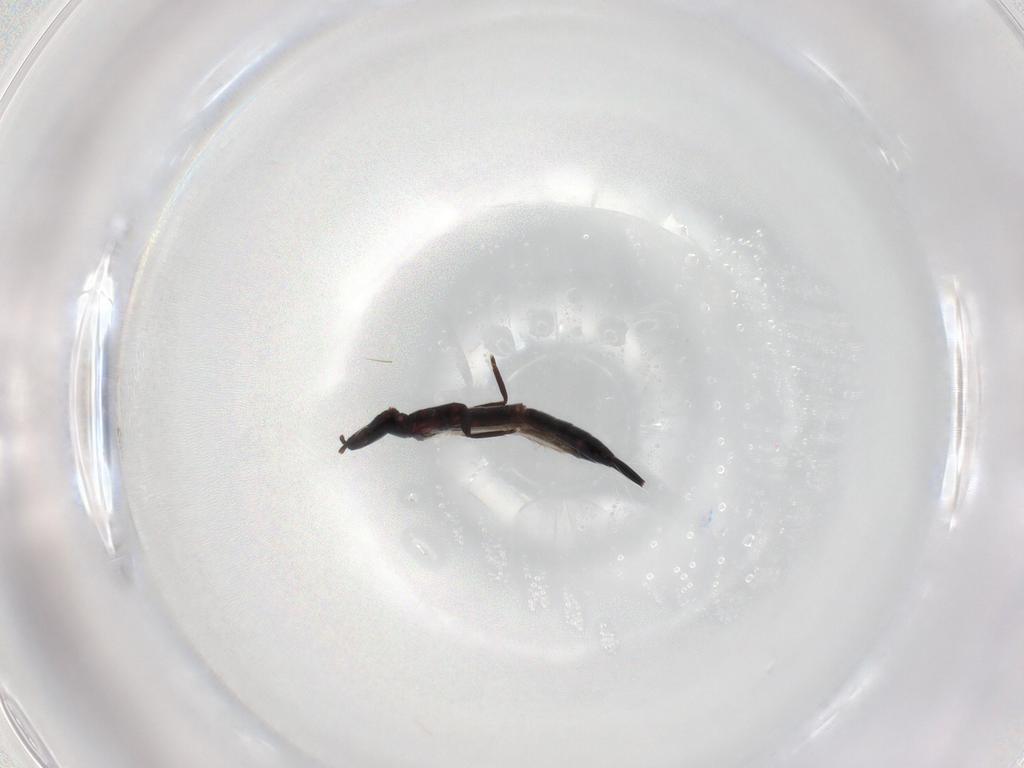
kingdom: Animalia
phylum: Arthropoda
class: Insecta
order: Thysanoptera
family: Phlaeothripidae
